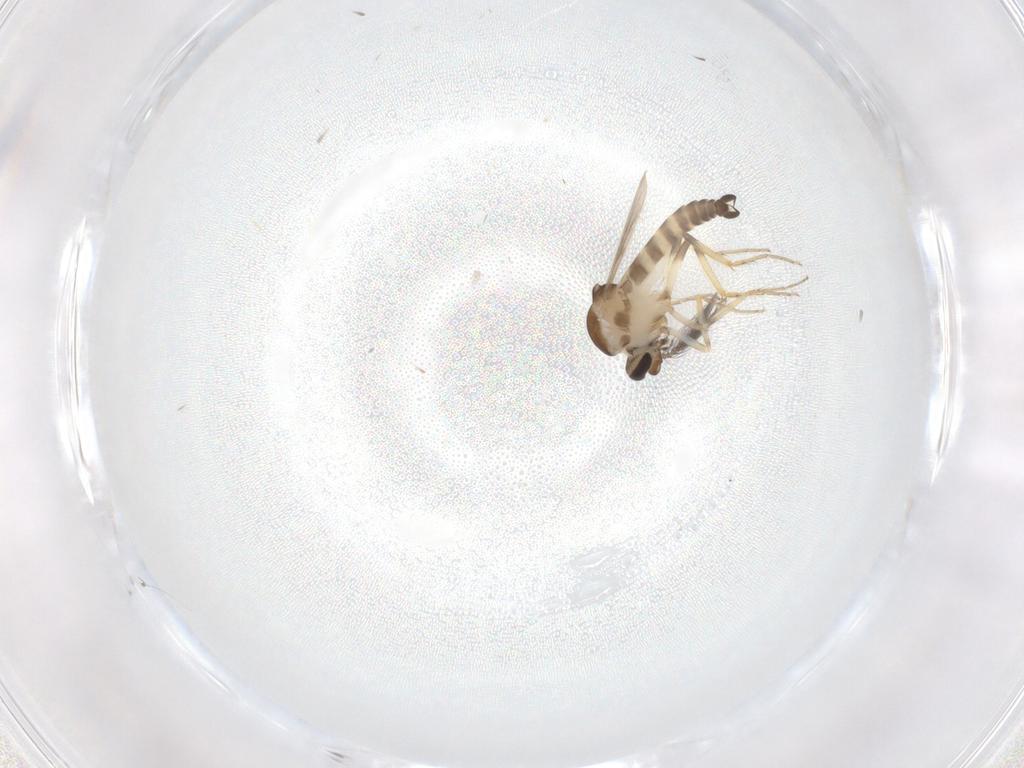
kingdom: Animalia
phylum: Arthropoda
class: Insecta
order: Diptera
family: Ceratopogonidae
